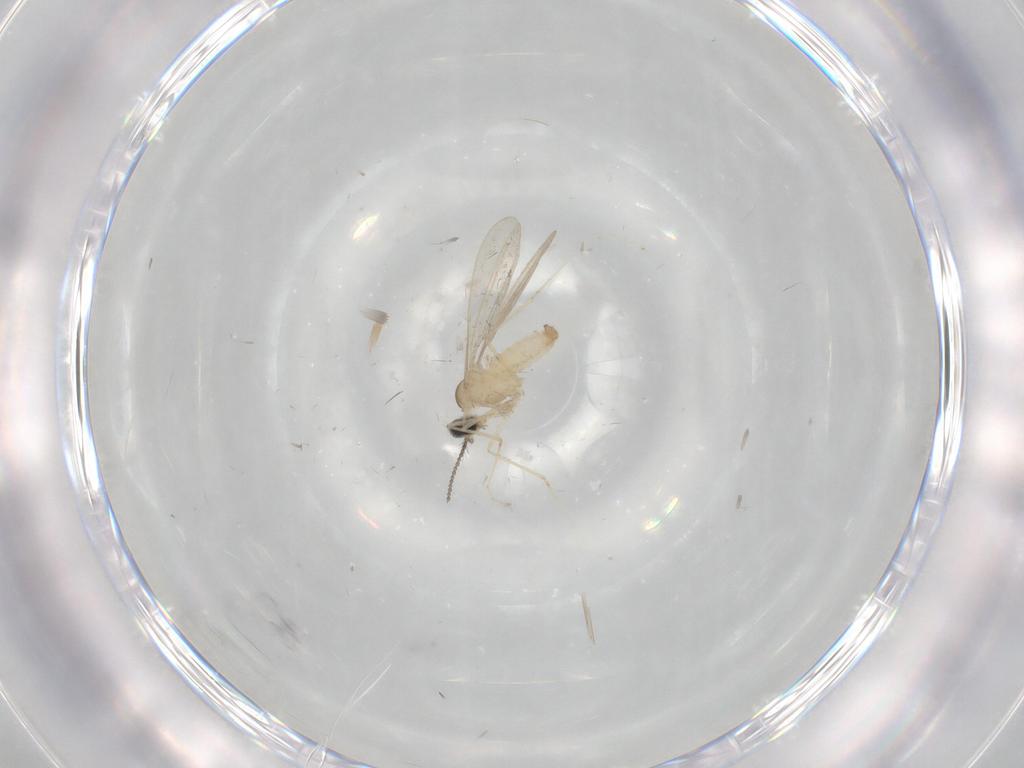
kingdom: Animalia
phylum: Arthropoda
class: Insecta
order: Diptera
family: Cecidomyiidae
